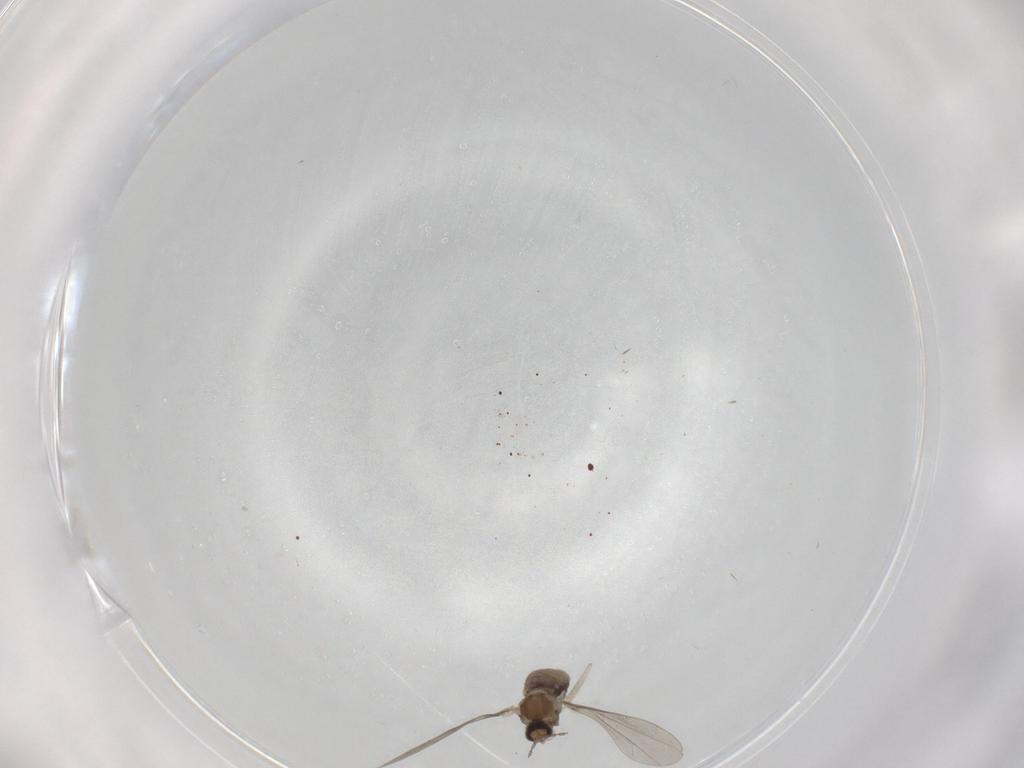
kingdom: Animalia
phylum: Arthropoda
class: Insecta
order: Diptera
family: Cecidomyiidae
